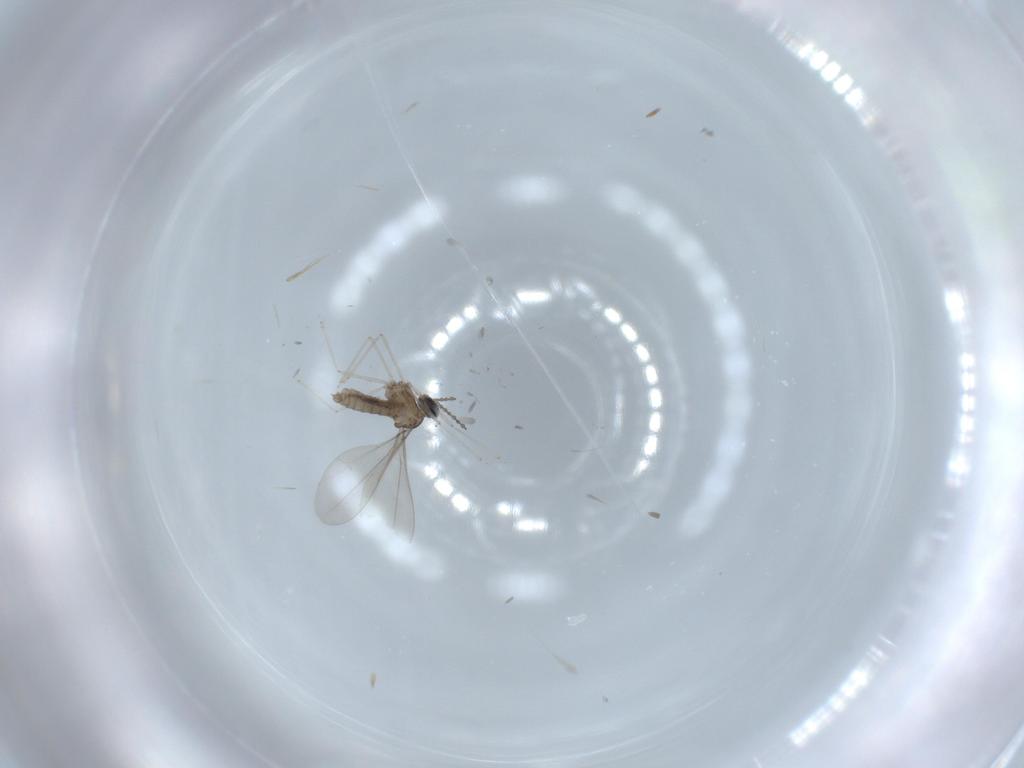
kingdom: Animalia
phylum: Arthropoda
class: Insecta
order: Diptera
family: Cecidomyiidae
